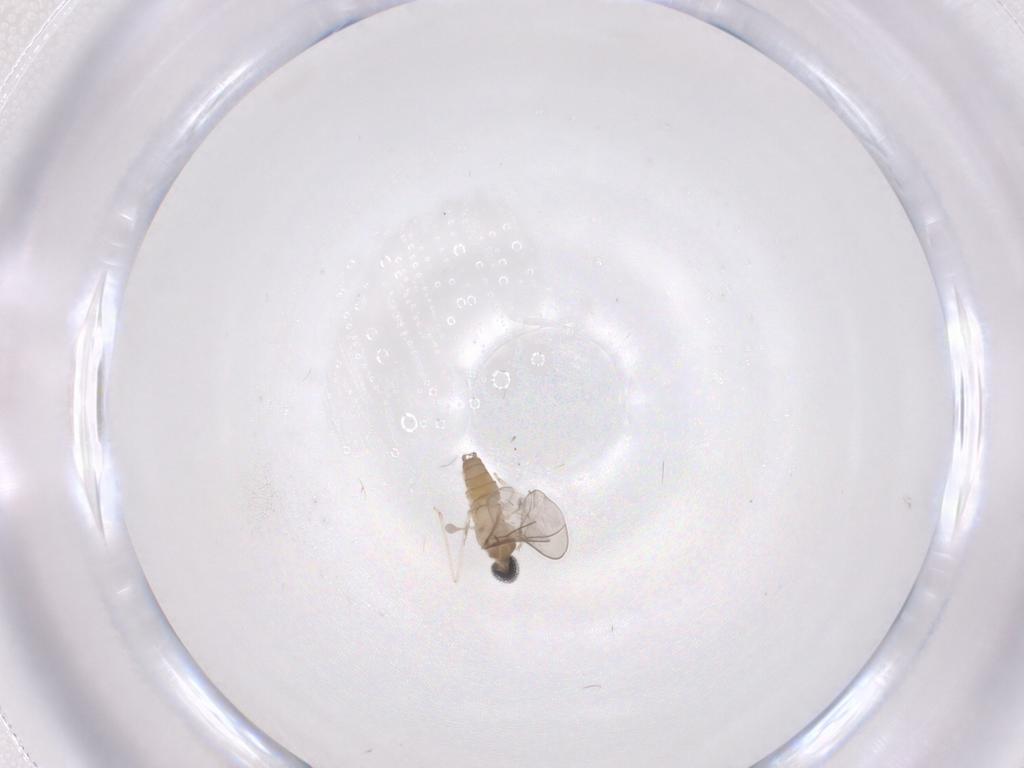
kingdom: Animalia
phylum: Arthropoda
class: Insecta
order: Diptera
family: Cecidomyiidae
